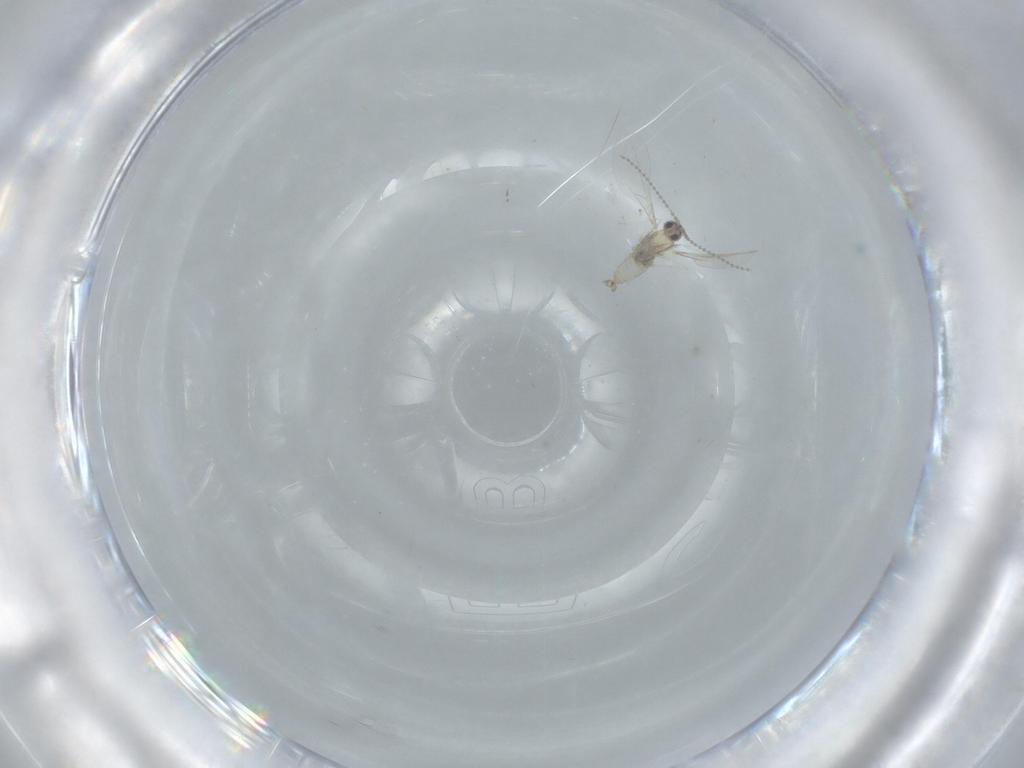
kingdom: Animalia
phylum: Arthropoda
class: Insecta
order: Diptera
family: Cecidomyiidae
